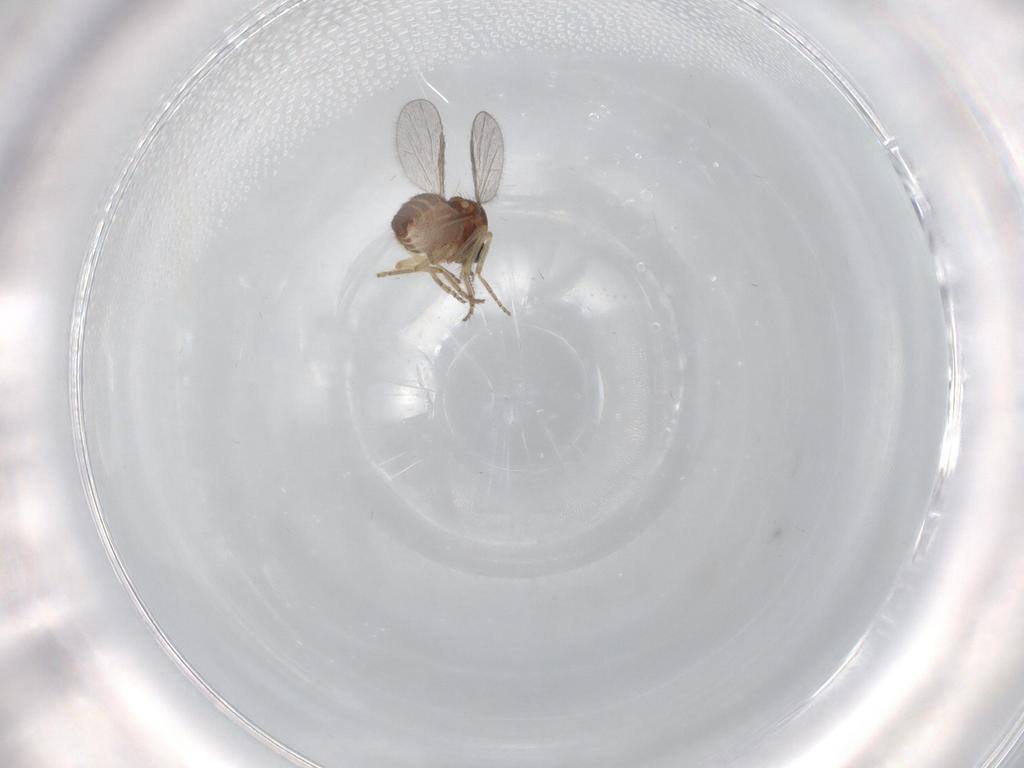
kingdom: Animalia
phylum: Arthropoda
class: Insecta
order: Diptera
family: Ceratopogonidae
